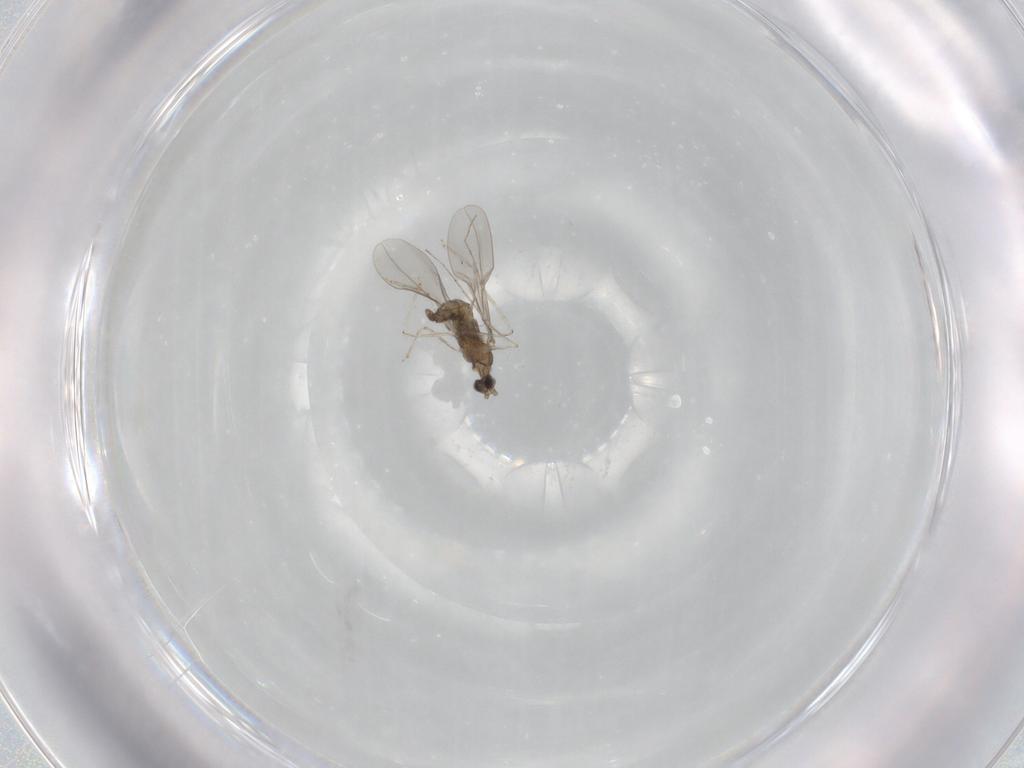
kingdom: Animalia
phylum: Arthropoda
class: Insecta
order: Diptera
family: Cecidomyiidae
